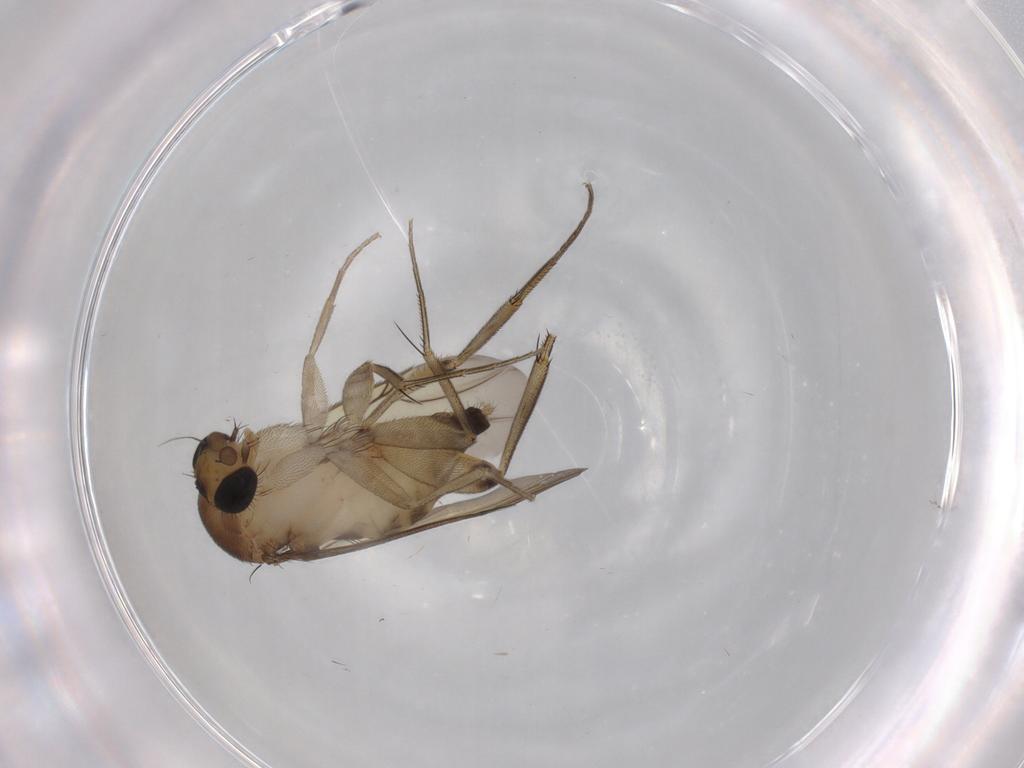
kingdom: Animalia
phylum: Arthropoda
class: Insecta
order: Diptera
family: Phoridae
